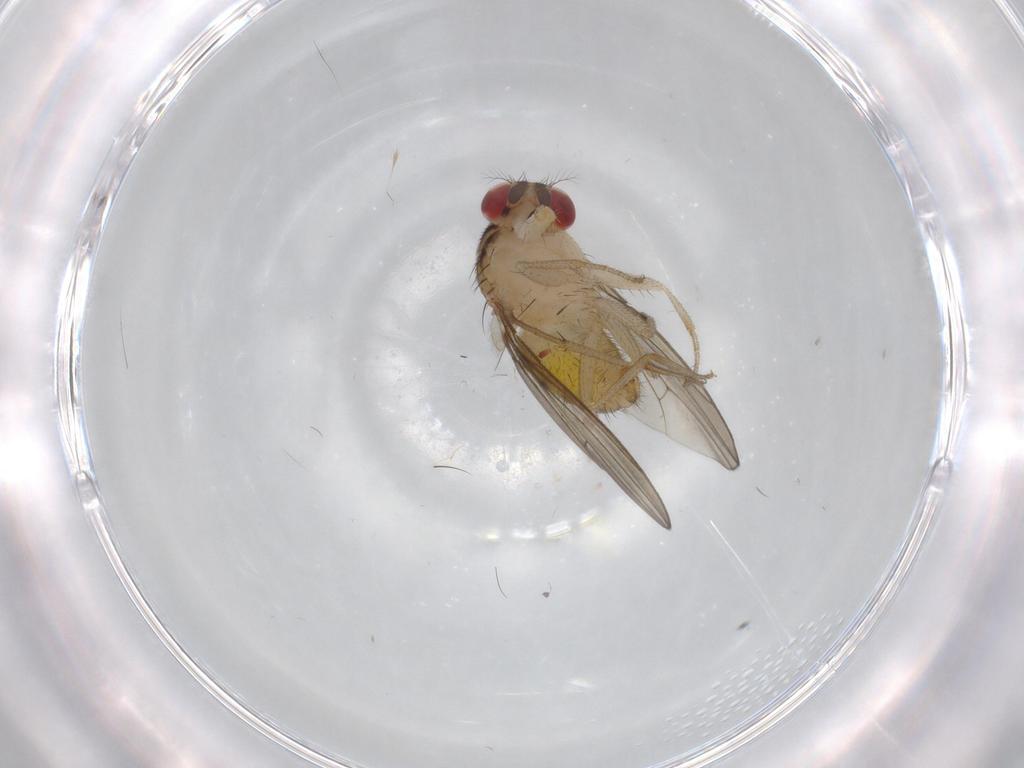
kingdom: Animalia
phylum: Arthropoda
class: Insecta
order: Diptera
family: Drosophilidae
